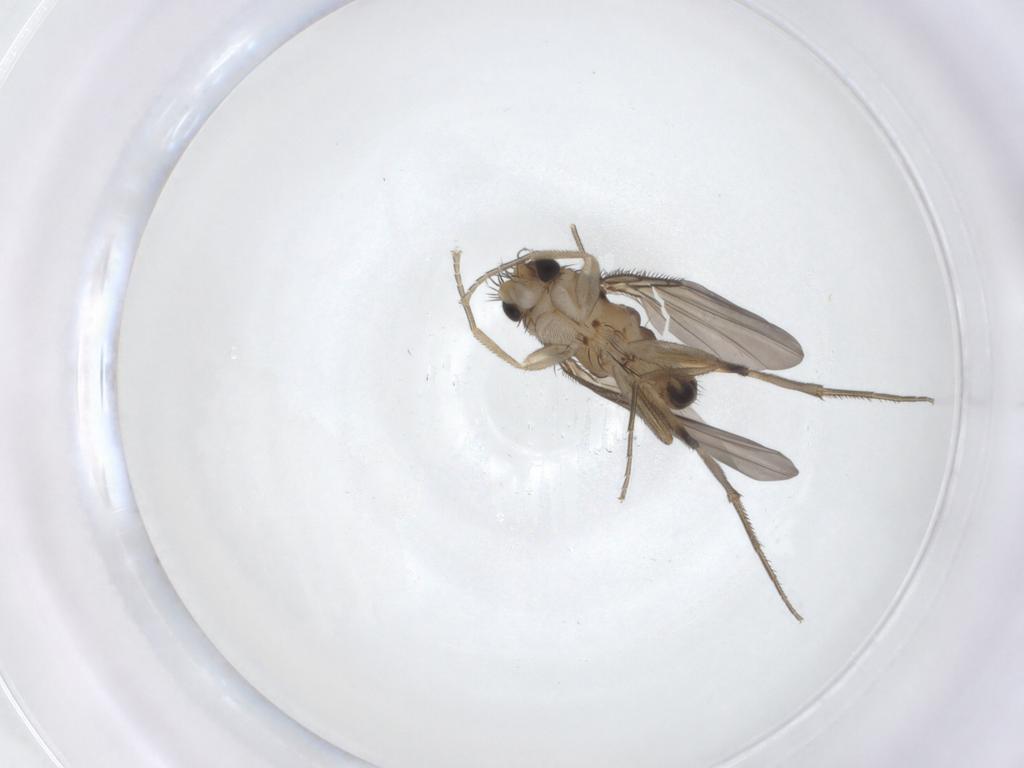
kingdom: Animalia
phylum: Arthropoda
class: Insecta
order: Diptera
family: Phoridae
